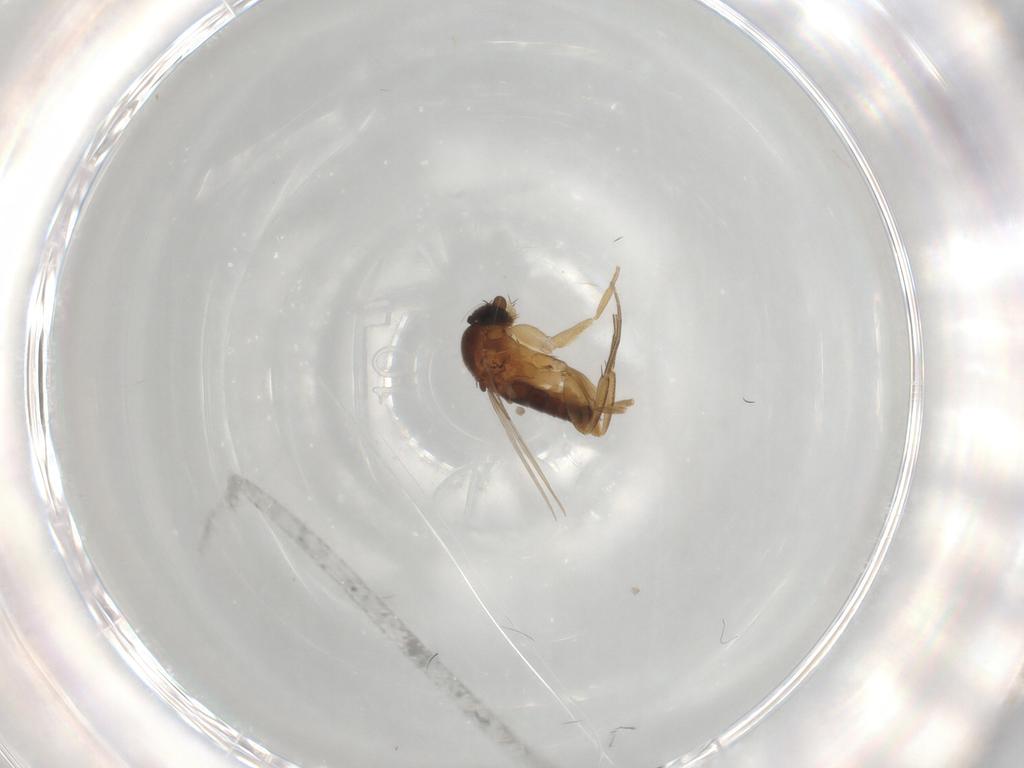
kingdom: Animalia
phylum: Arthropoda
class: Insecta
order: Diptera
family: Phoridae
